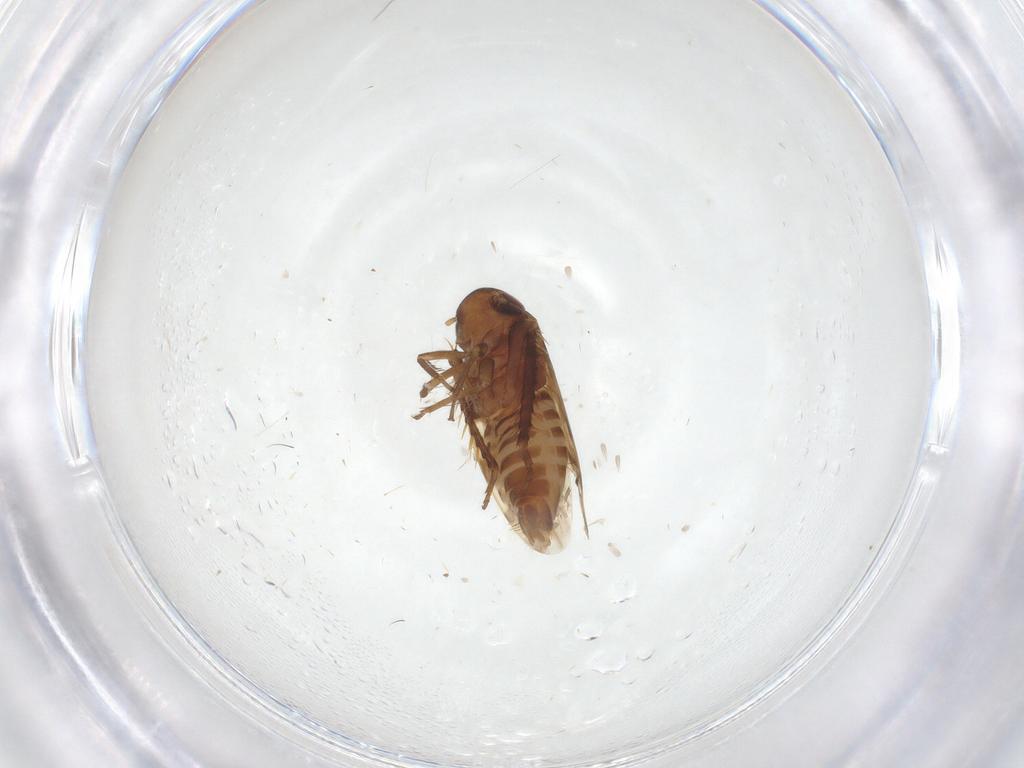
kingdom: Animalia
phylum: Arthropoda
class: Insecta
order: Hemiptera
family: Cicadellidae
